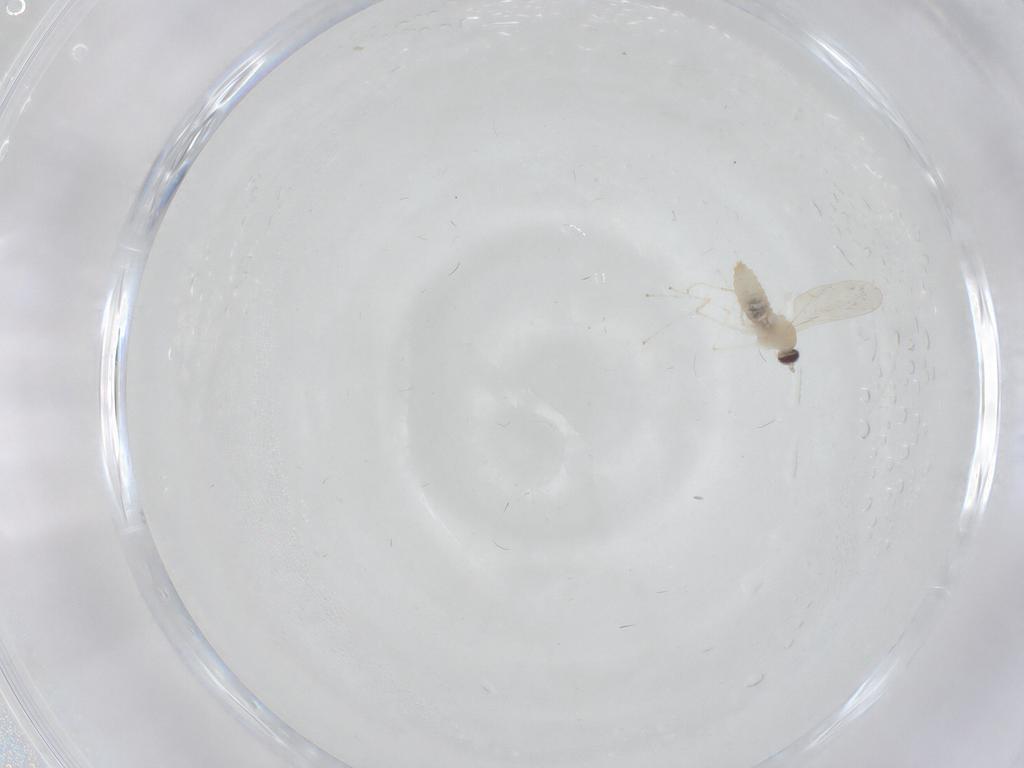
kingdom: Animalia
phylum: Arthropoda
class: Insecta
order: Diptera
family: Cecidomyiidae
